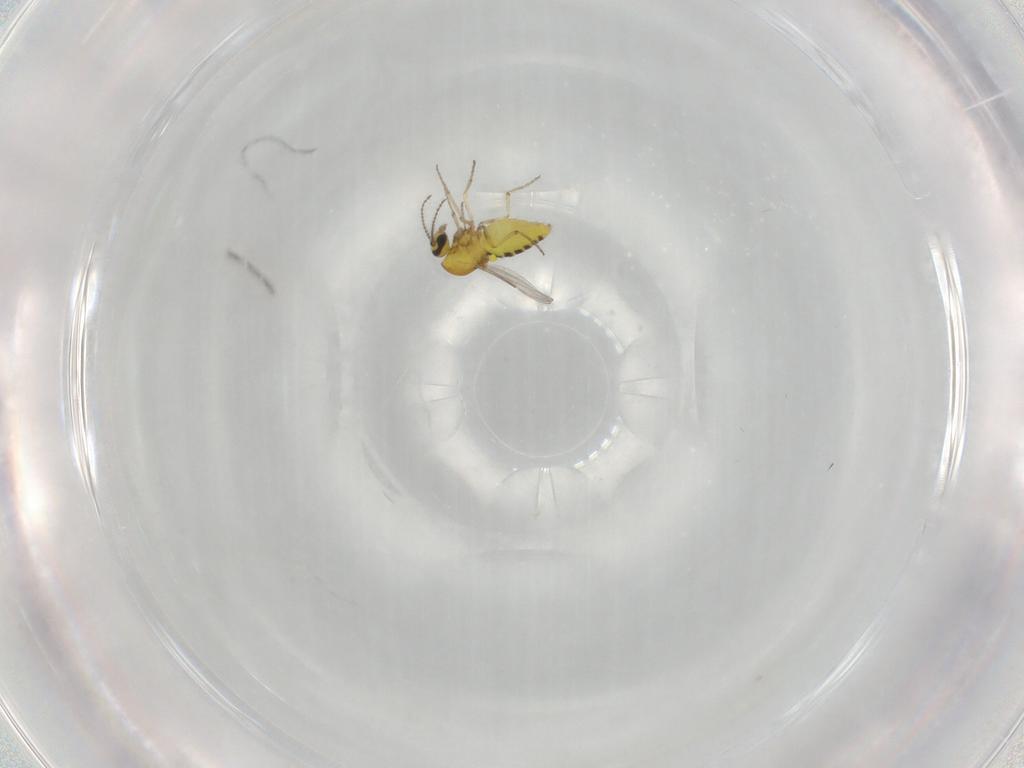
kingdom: Animalia
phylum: Arthropoda
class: Insecta
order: Diptera
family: Ceratopogonidae
